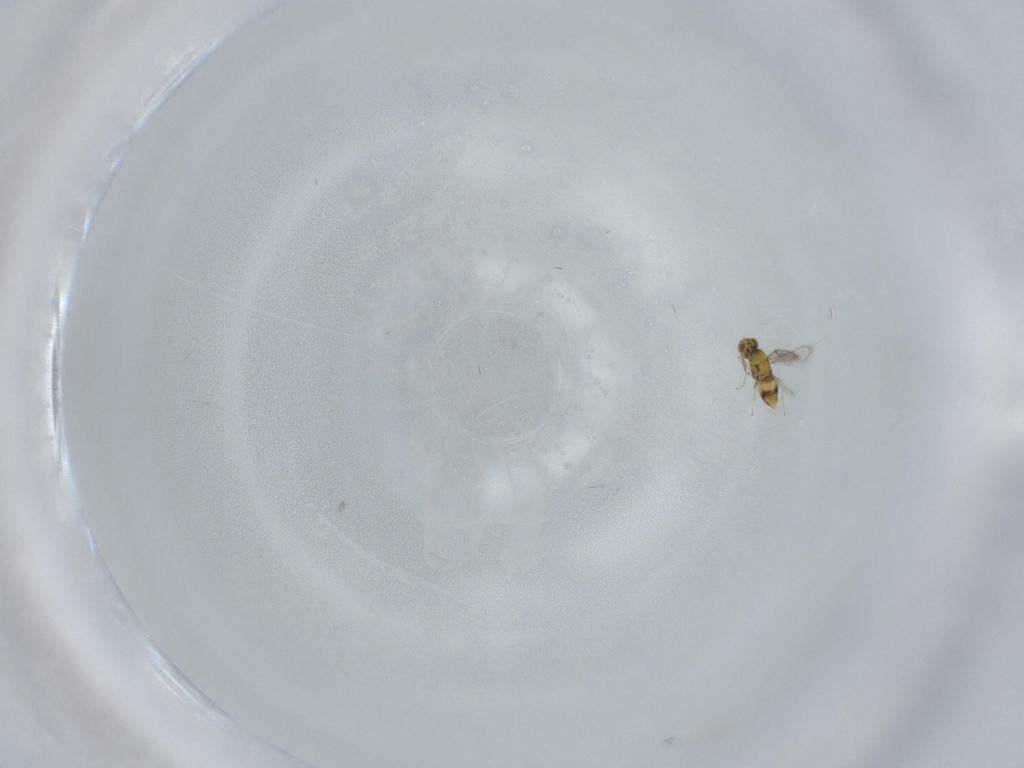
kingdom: Animalia
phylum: Arthropoda
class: Insecta
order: Hymenoptera
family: Aphelinidae
